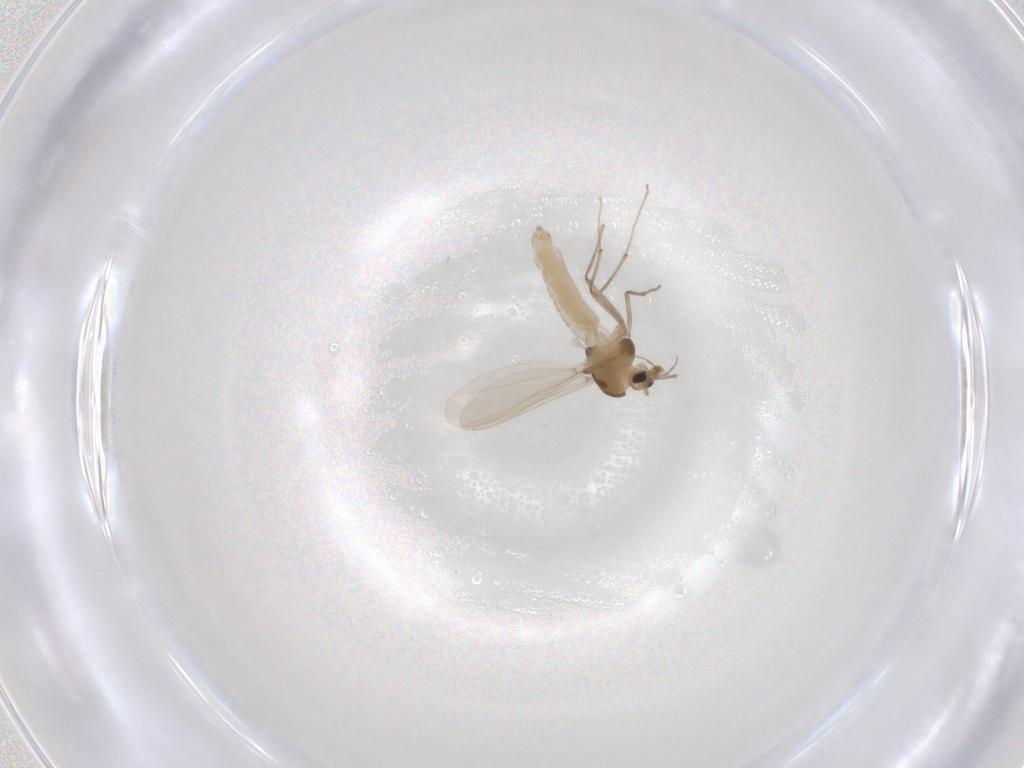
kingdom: Animalia
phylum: Arthropoda
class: Insecta
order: Diptera
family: Chironomidae
